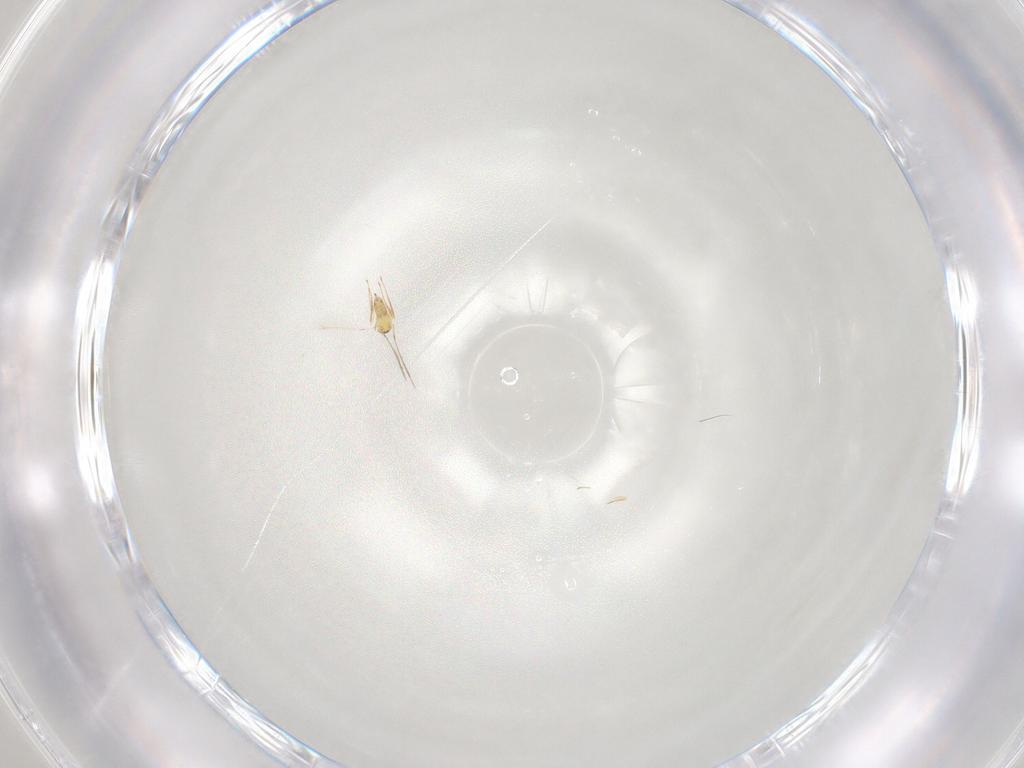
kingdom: Animalia
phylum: Arthropoda
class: Insecta
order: Hymenoptera
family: Mymaridae
